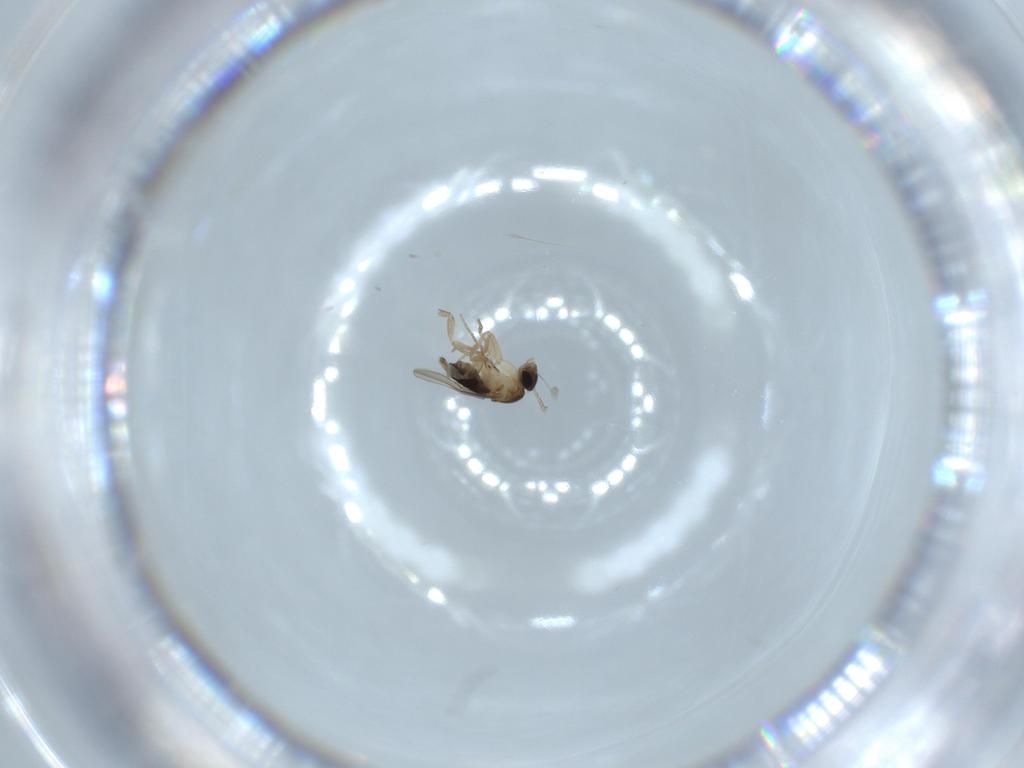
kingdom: Animalia
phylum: Arthropoda
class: Insecta
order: Diptera
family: Phoridae
